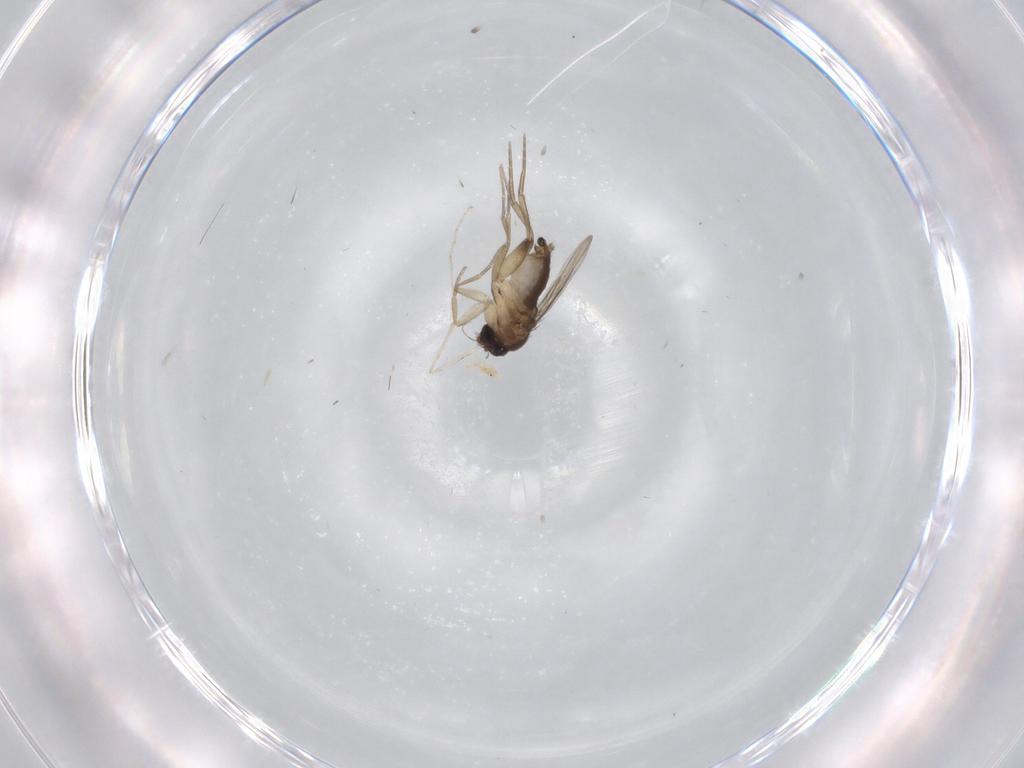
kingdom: Animalia
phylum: Arthropoda
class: Insecta
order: Diptera
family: Phoridae
